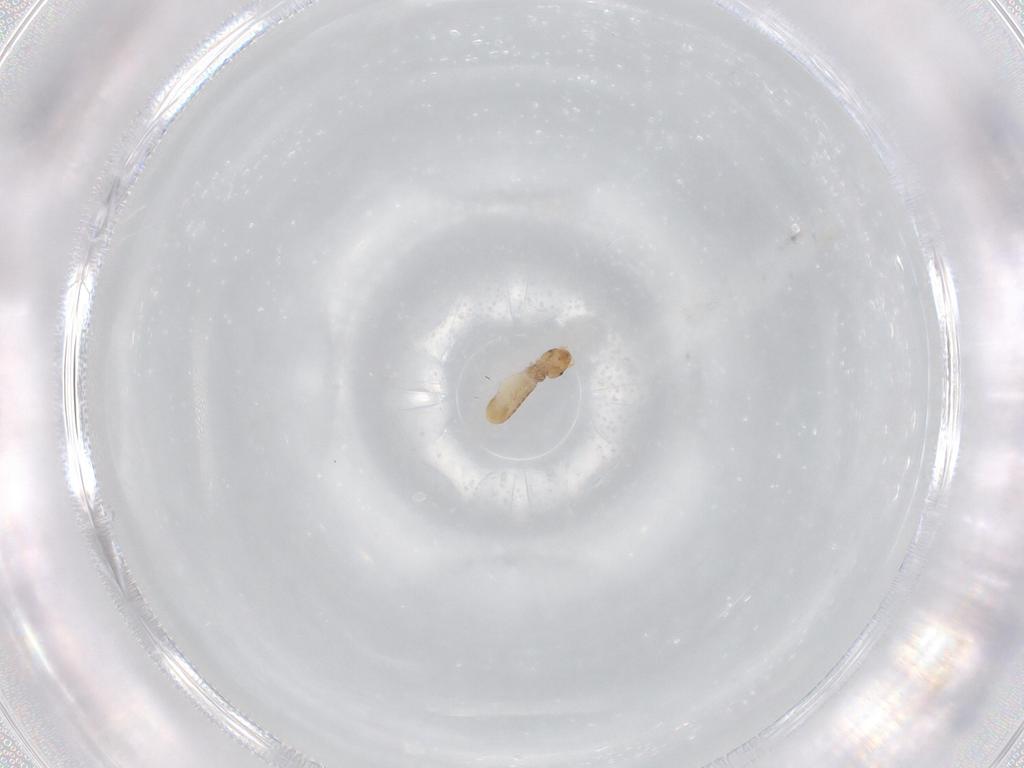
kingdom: Animalia
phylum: Arthropoda
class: Insecta
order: Psocodea
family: Liposcelididae
